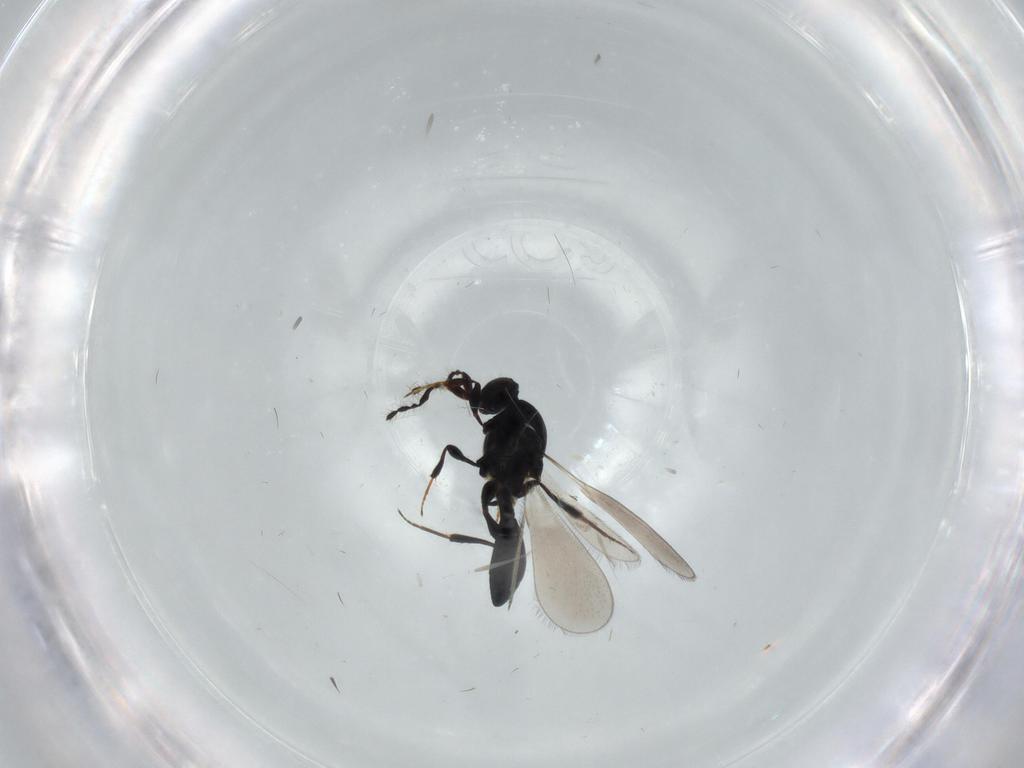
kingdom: Animalia
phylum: Arthropoda
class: Insecta
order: Hymenoptera
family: Platygastridae
